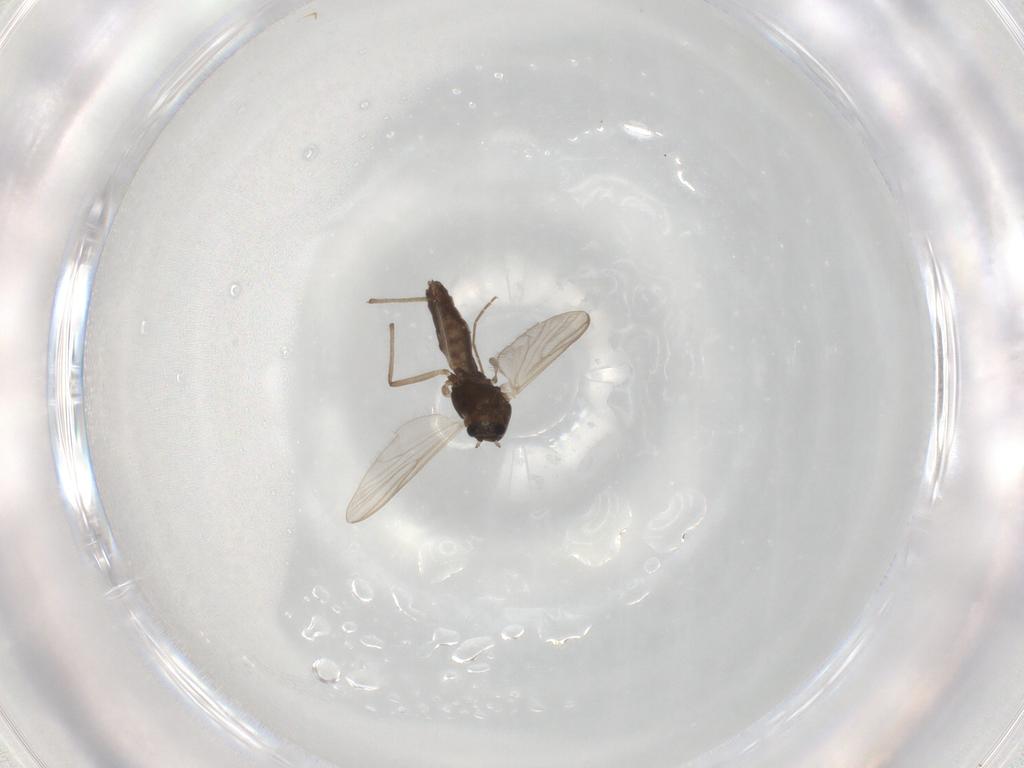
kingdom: Animalia
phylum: Arthropoda
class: Insecta
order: Diptera
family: Chironomidae
